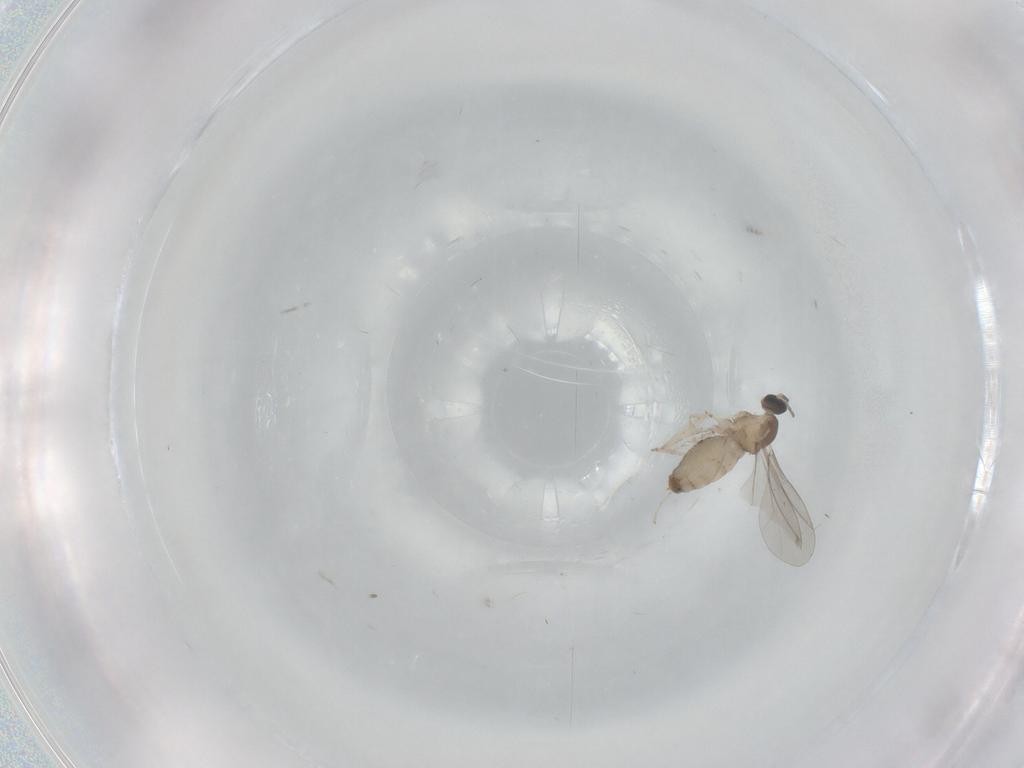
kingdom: Animalia
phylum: Arthropoda
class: Insecta
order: Diptera
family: Cecidomyiidae
